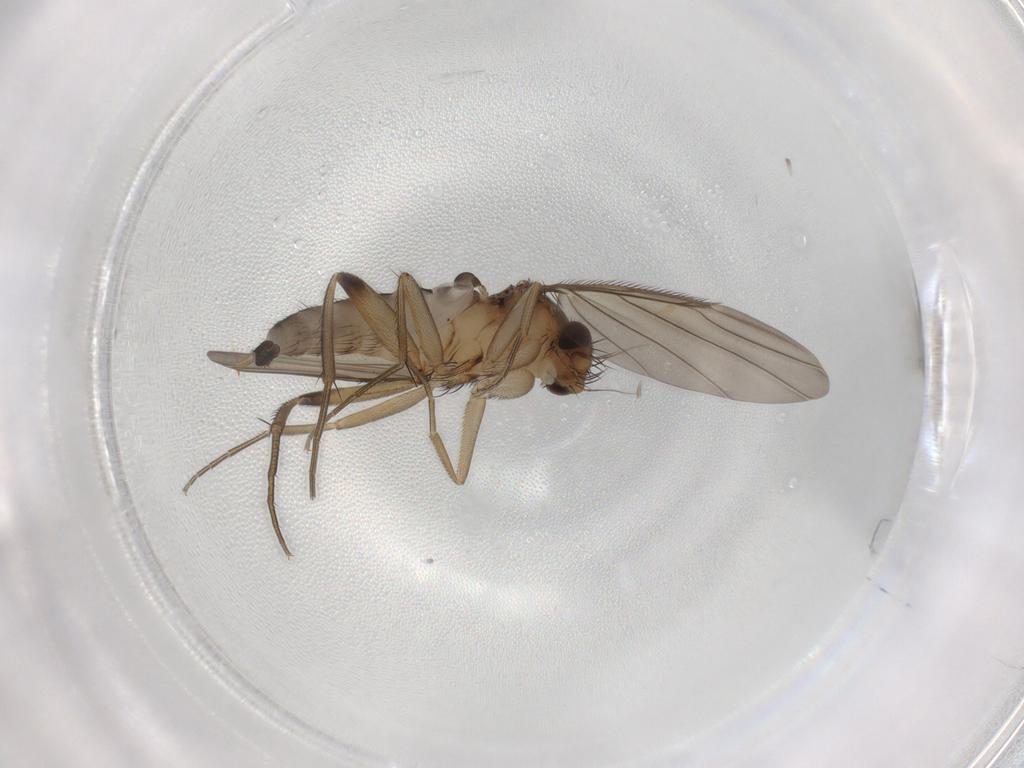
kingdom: Animalia
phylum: Arthropoda
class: Insecta
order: Diptera
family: Phoridae
